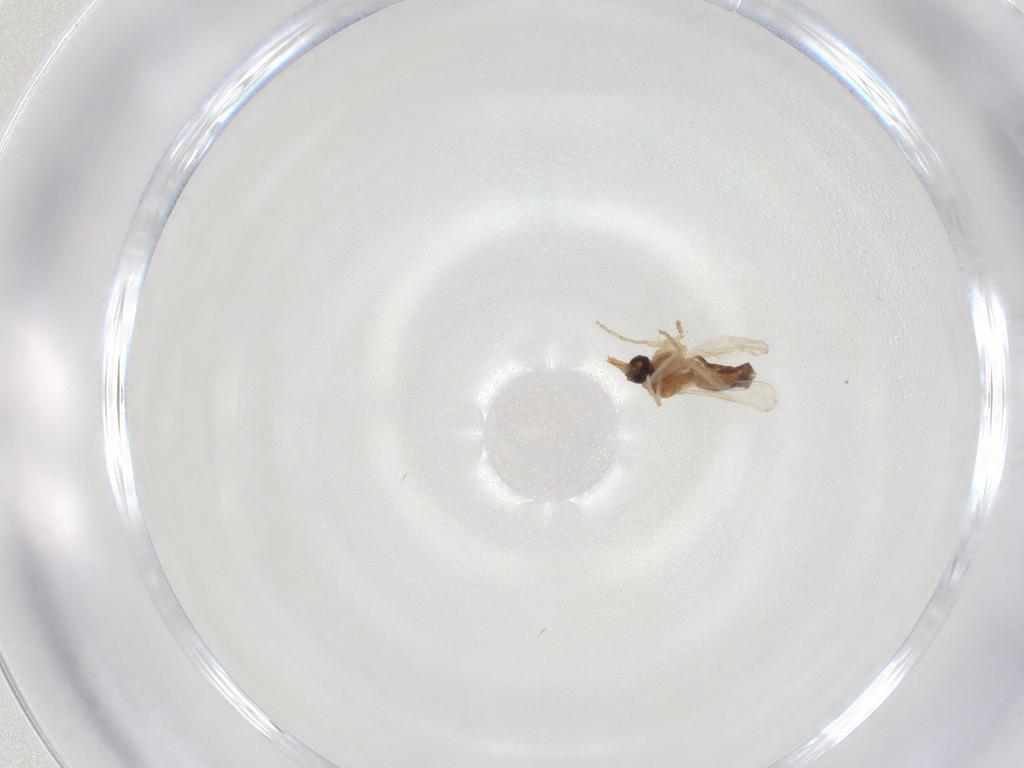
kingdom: Animalia
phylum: Arthropoda
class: Insecta
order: Diptera
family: Ceratopogonidae
